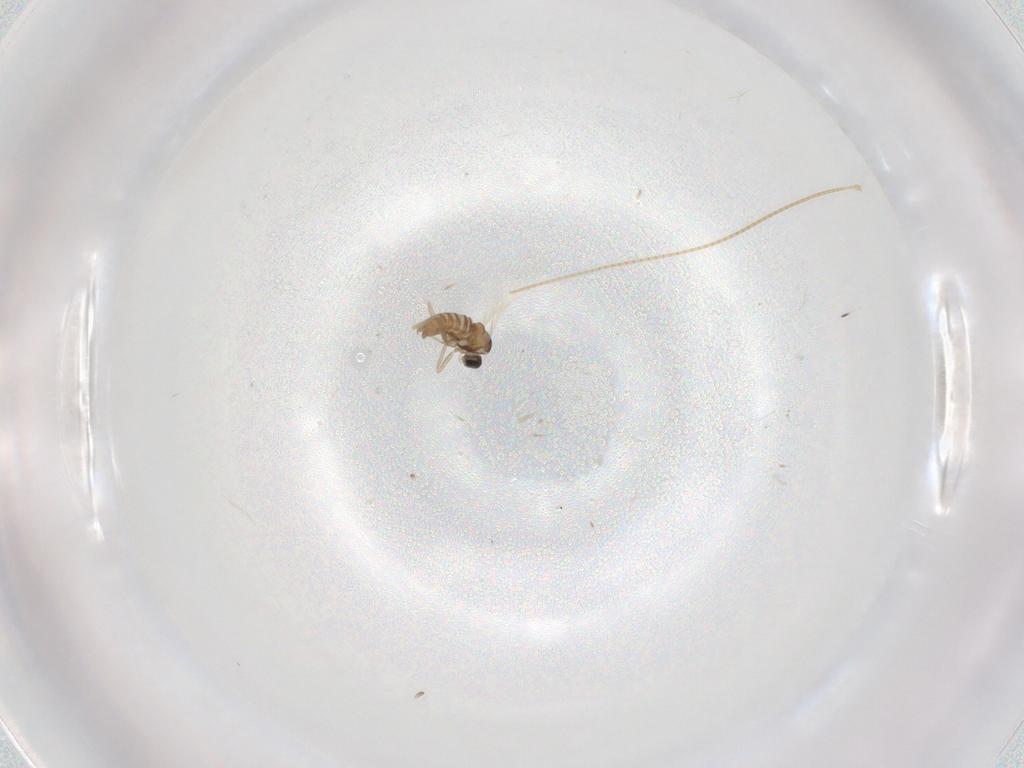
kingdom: Animalia
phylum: Arthropoda
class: Insecta
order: Diptera
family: Cecidomyiidae
